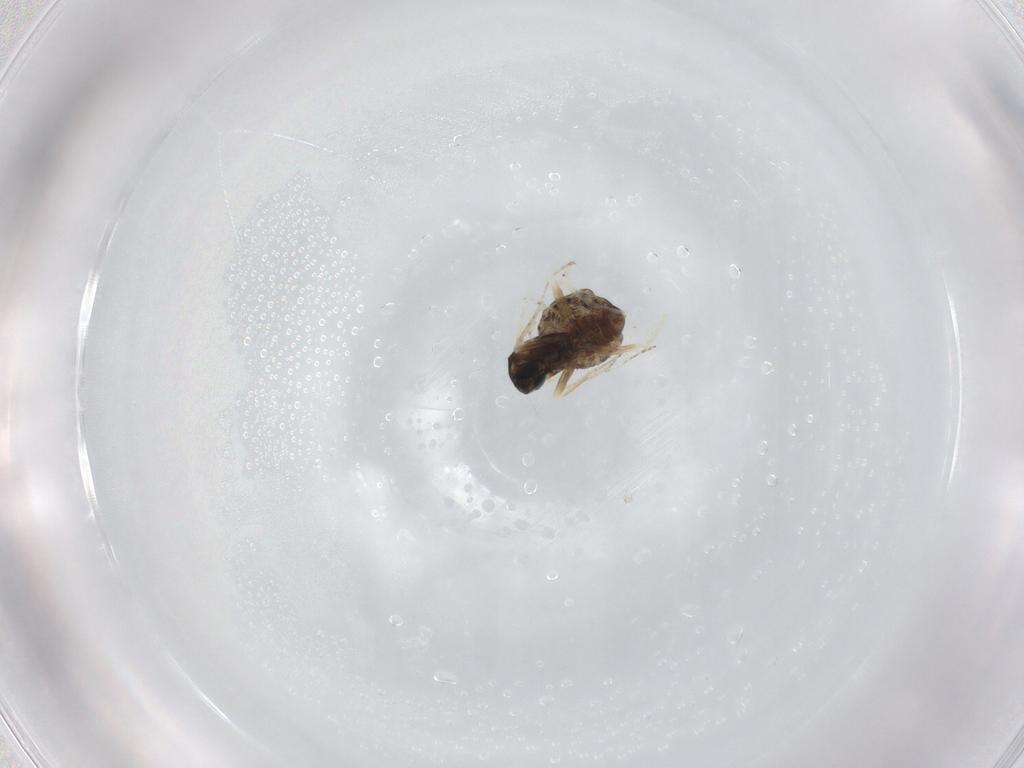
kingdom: Animalia
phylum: Arthropoda
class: Insecta
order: Diptera
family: Cecidomyiidae
